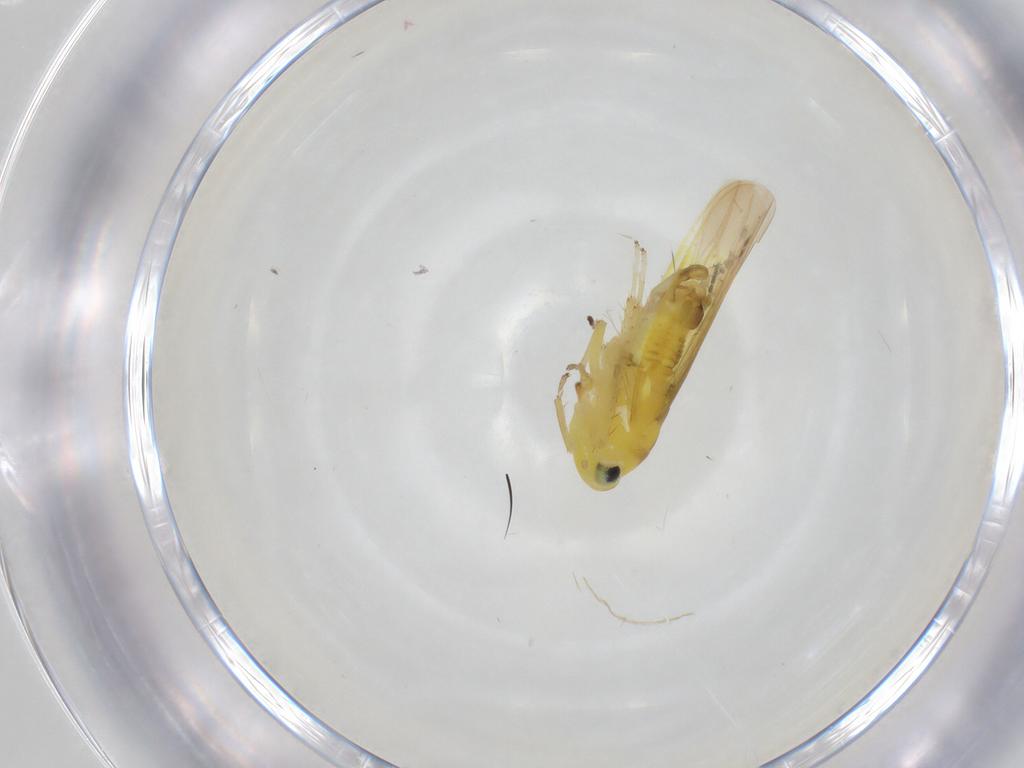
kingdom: Animalia
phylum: Arthropoda
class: Insecta
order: Hemiptera
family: Cicadellidae
